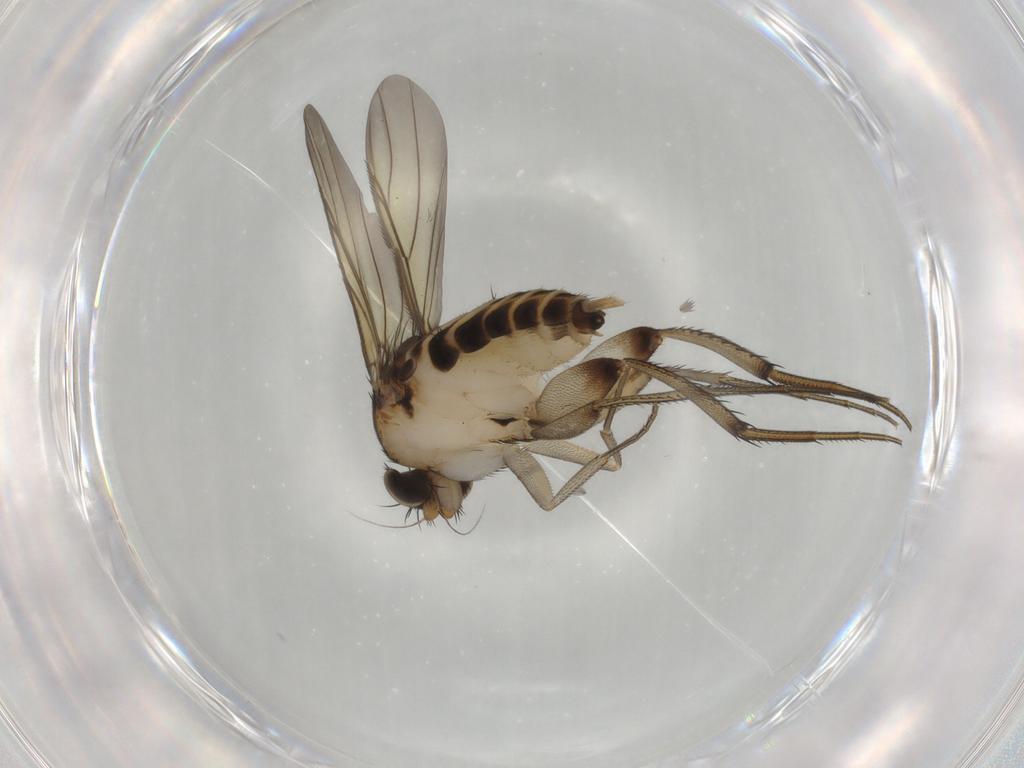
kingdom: Animalia
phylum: Arthropoda
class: Insecta
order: Diptera
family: Phoridae
